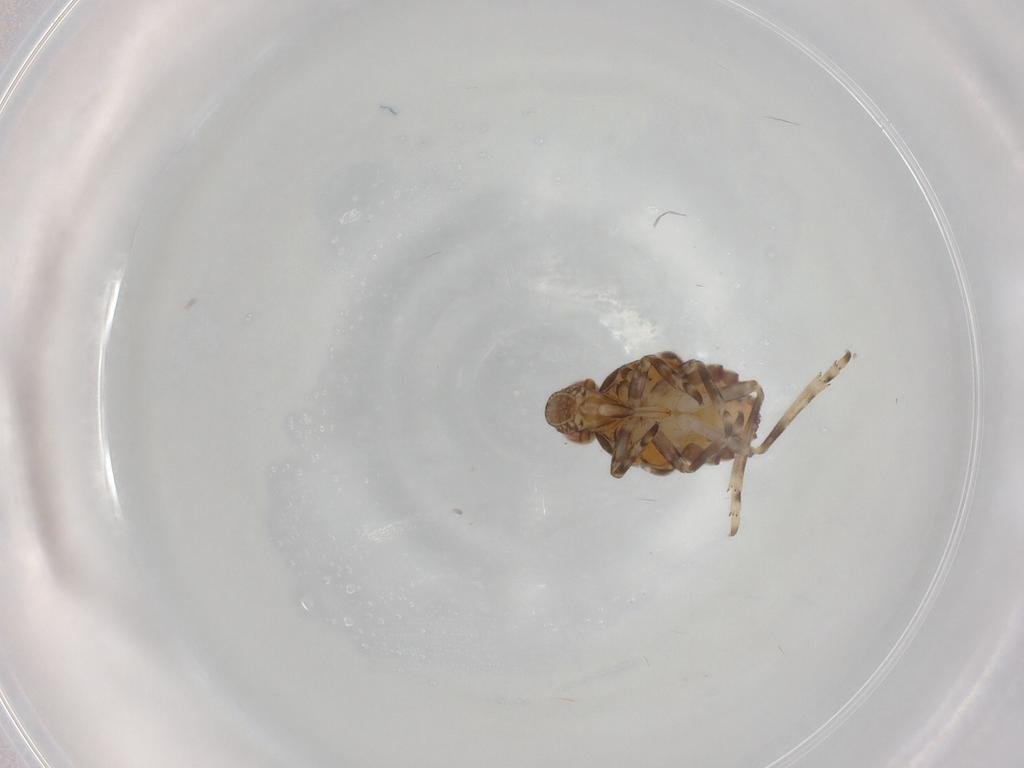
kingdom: Animalia
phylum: Arthropoda
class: Insecta
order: Hemiptera
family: Tropiduchidae
